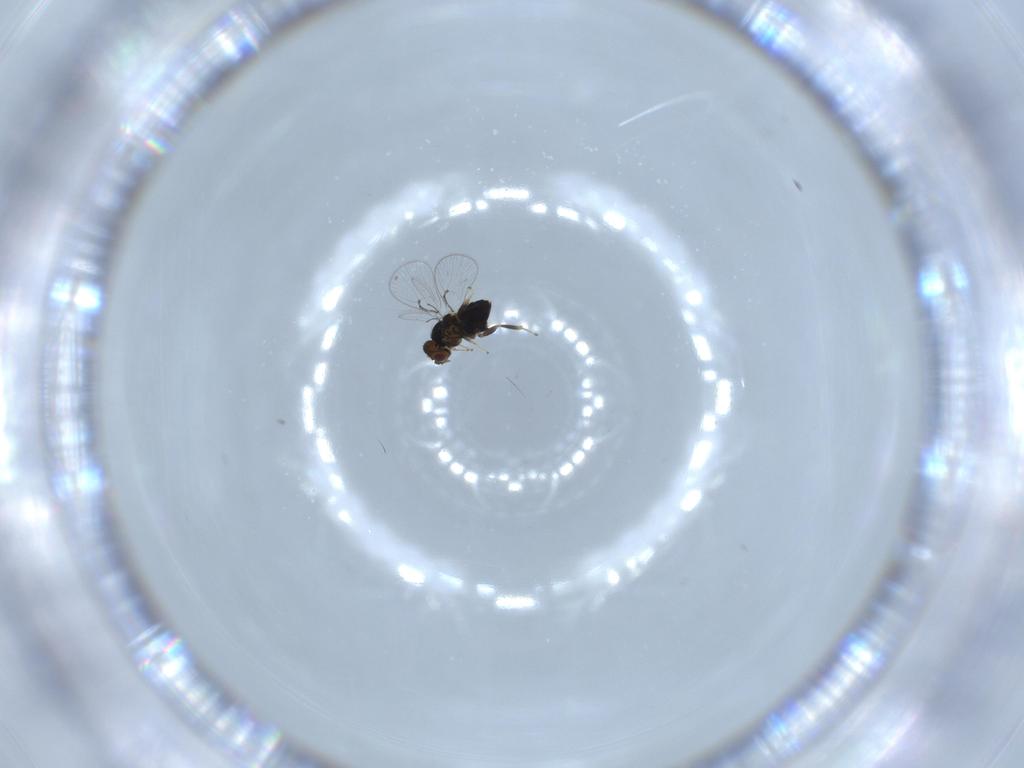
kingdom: Animalia
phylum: Arthropoda
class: Insecta
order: Hymenoptera
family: Trichogrammatidae
